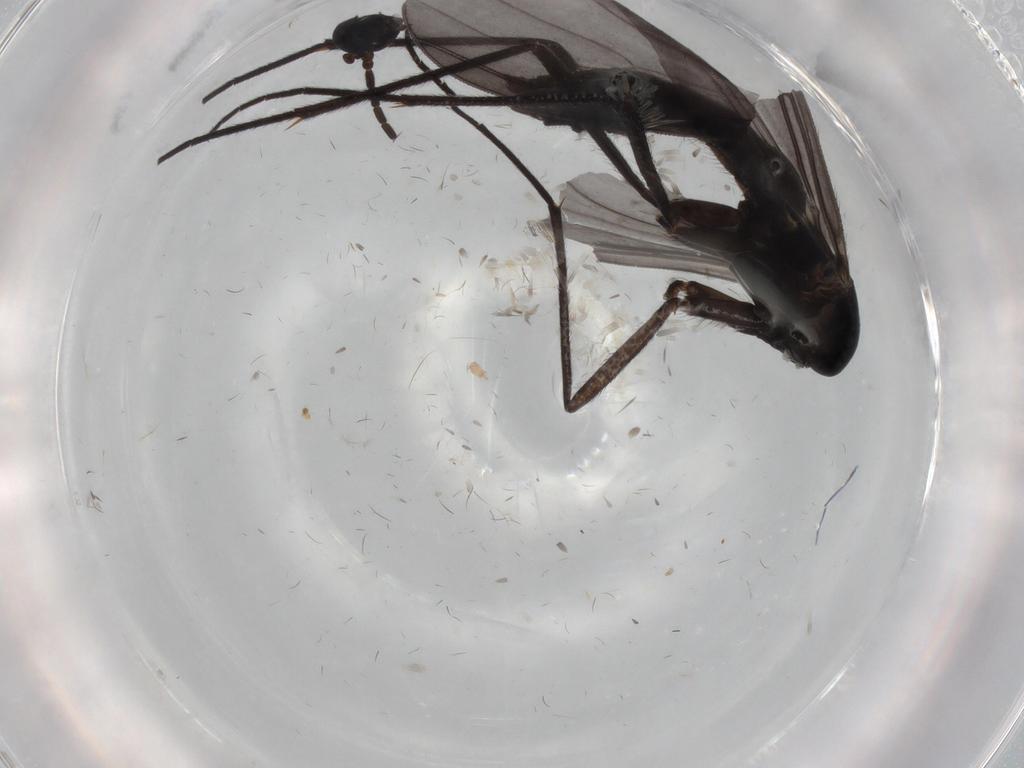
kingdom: Animalia
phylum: Arthropoda
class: Insecta
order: Diptera
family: Sciaridae
